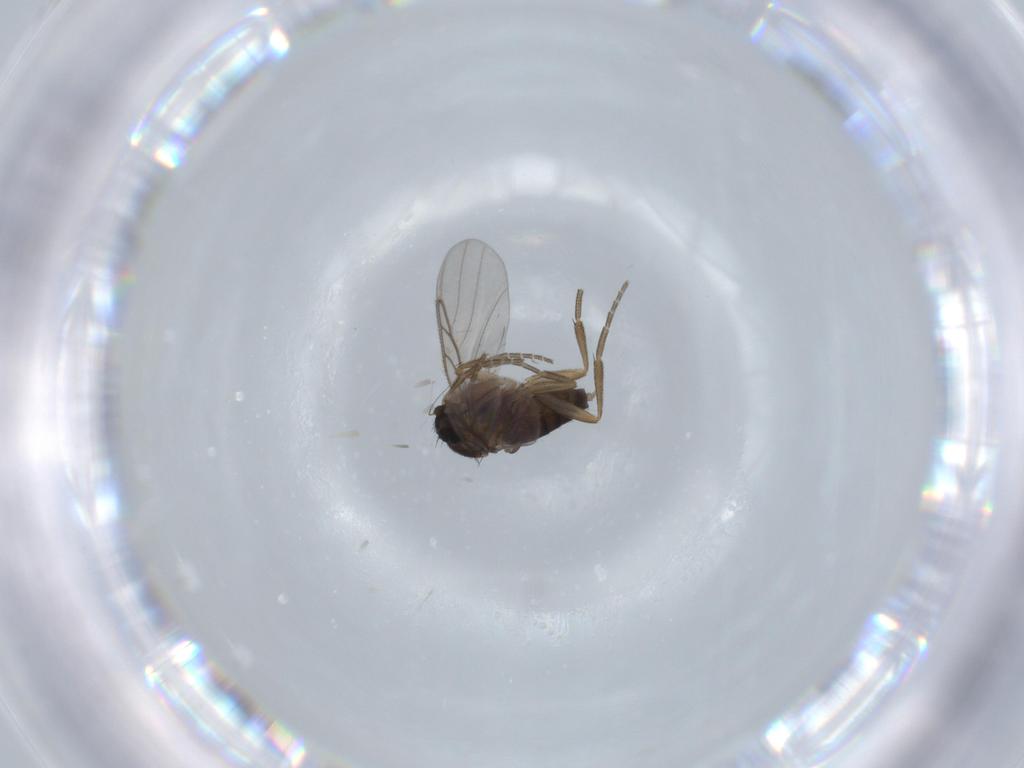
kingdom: Animalia
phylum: Arthropoda
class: Insecta
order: Diptera
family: Phoridae
